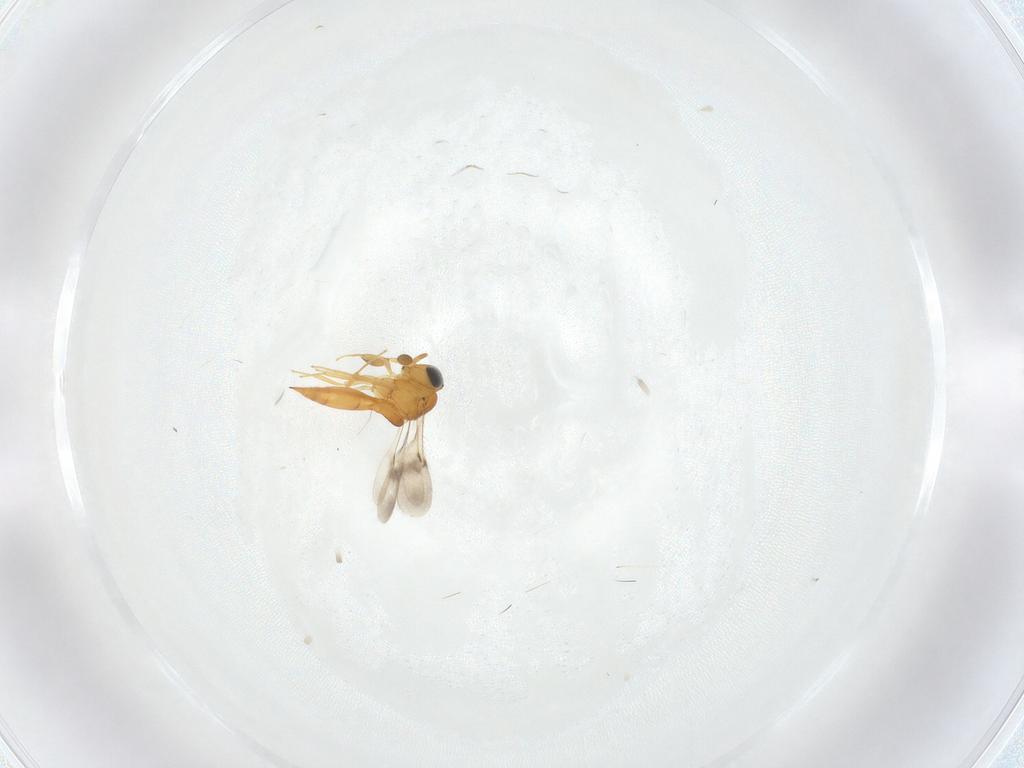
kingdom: Animalia
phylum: Arthropoda
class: Insecta
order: Hymenoptera
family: Scelionidae
